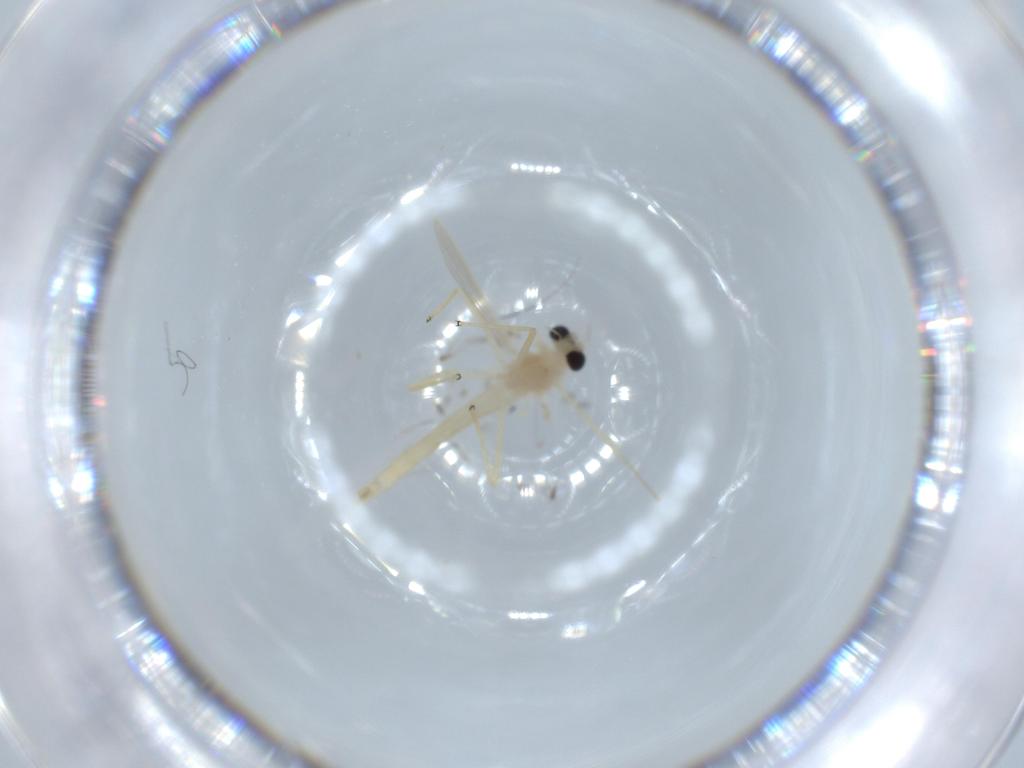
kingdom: Animalia
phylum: Arthropoda
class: Insecta
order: Diptera
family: Chironomidae
